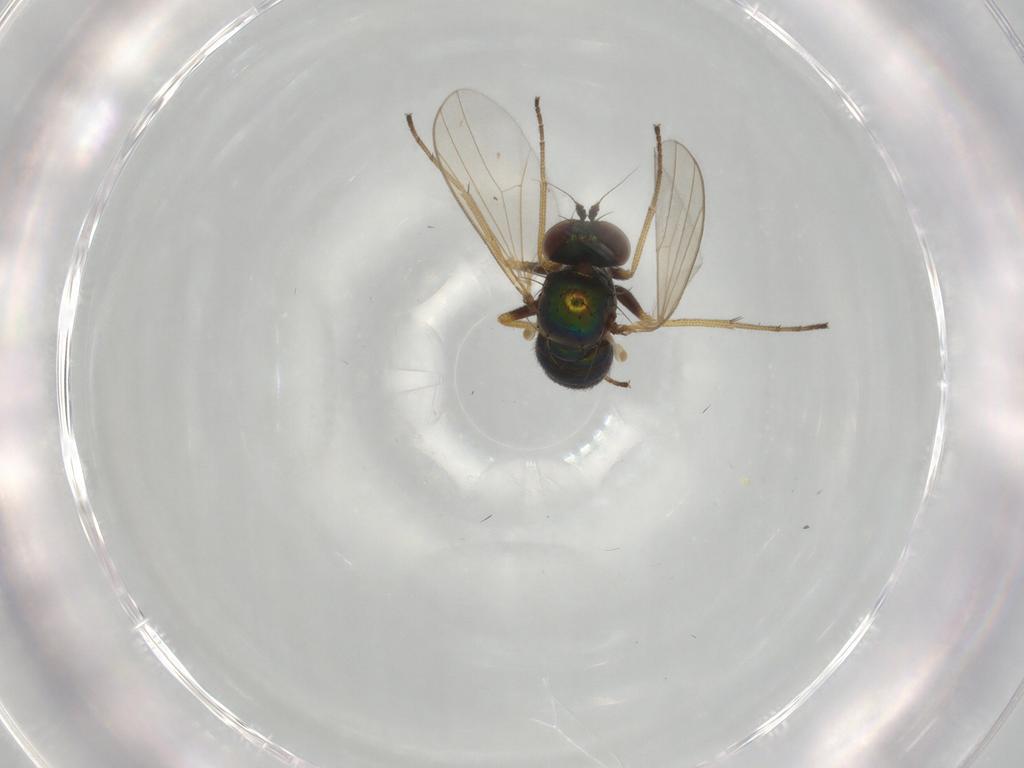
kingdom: Animalia
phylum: Arthropoda
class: Insecta
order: Diptera
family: Dolichopodidae
